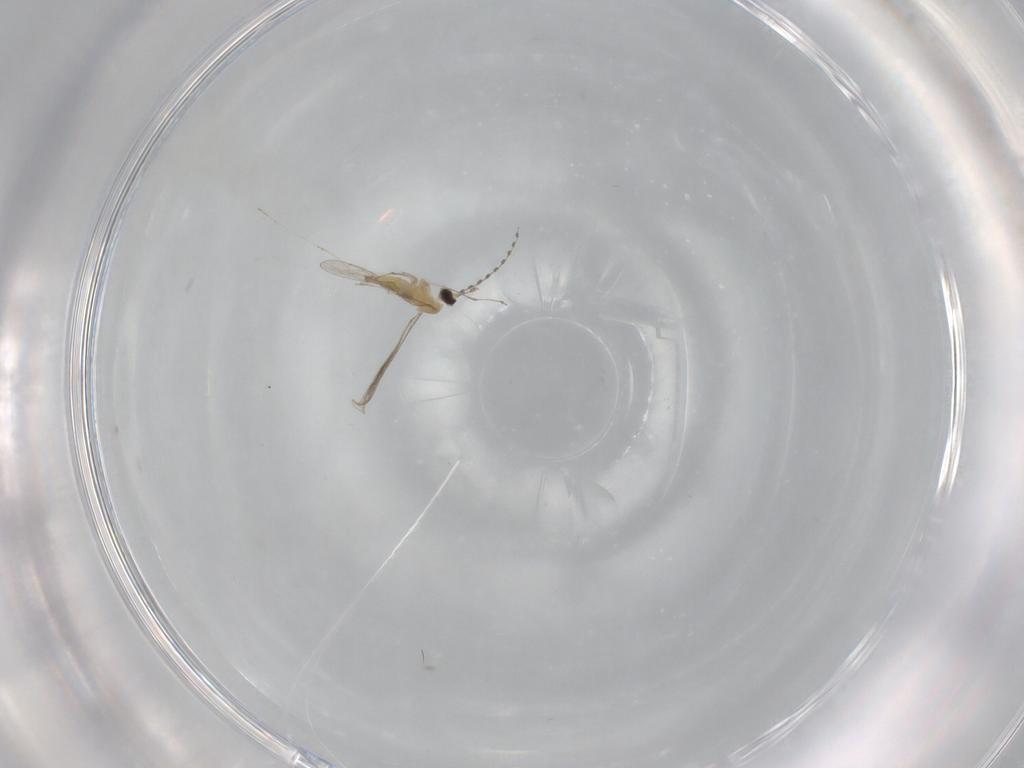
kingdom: Animalia
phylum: Arthropoda
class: Insecta
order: Diptera
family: Cecidomyiidae
